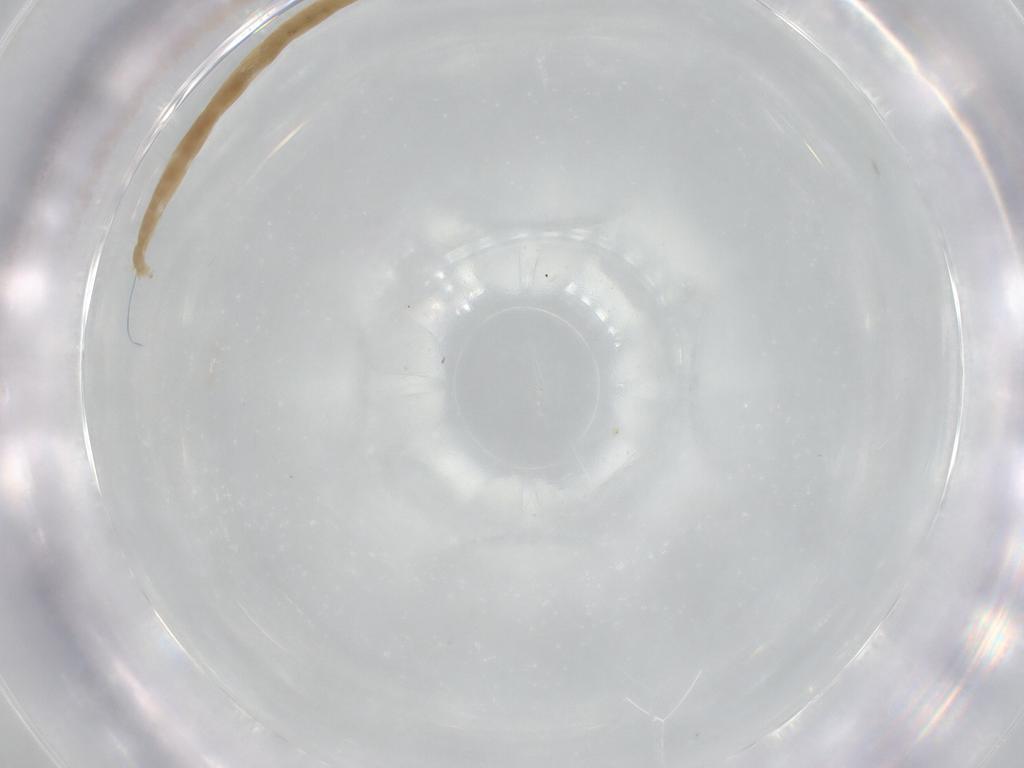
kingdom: Animalia
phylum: Arthropoda
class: Insecta
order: Diptera
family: Chironomidae
